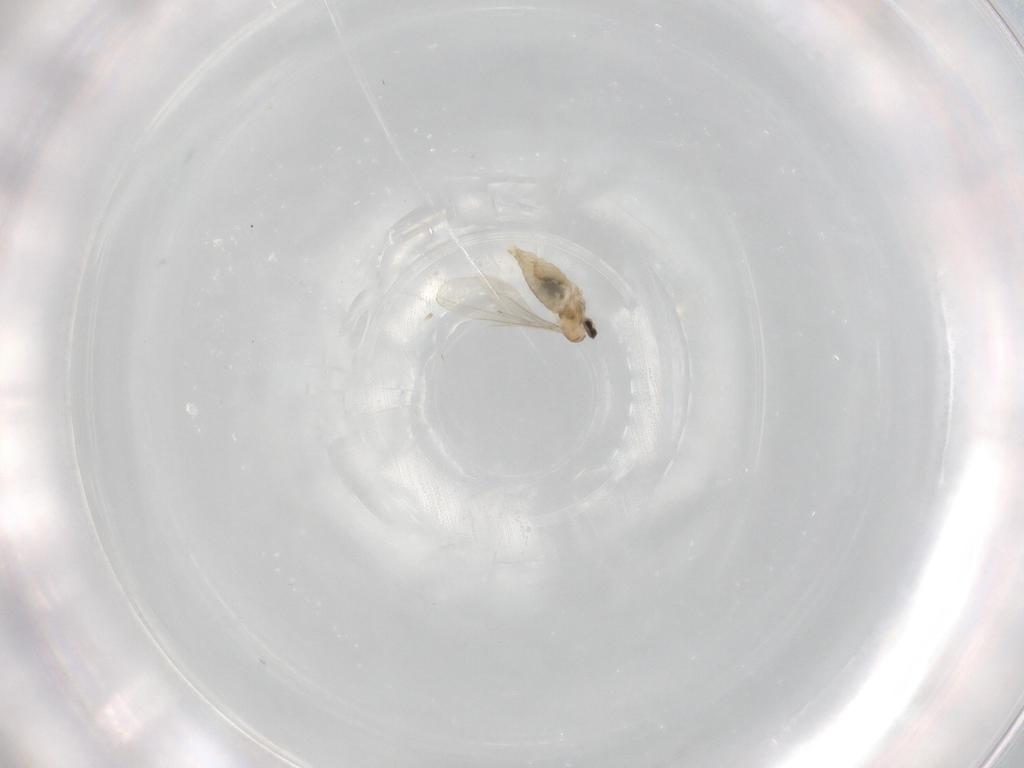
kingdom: Animalia
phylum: Arthropoda
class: Insecta
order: Diptera
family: Cecidomyiidae
